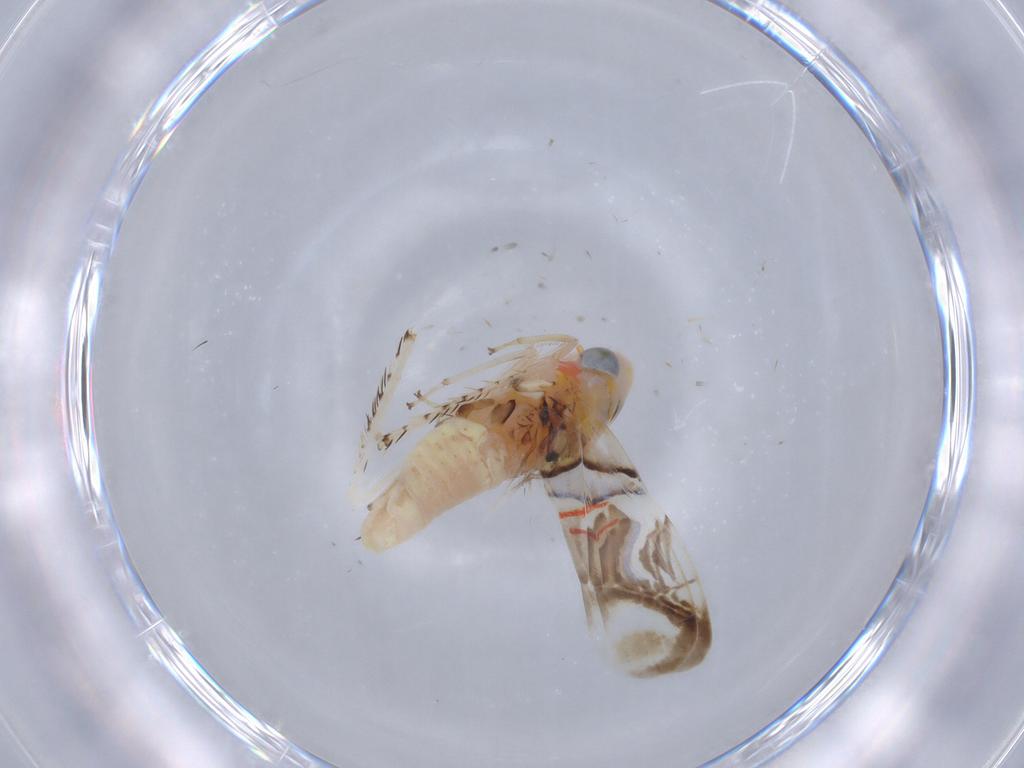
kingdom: Animalia
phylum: Arthropoda
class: Insecta
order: Hemiptera
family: Cicadellidae
